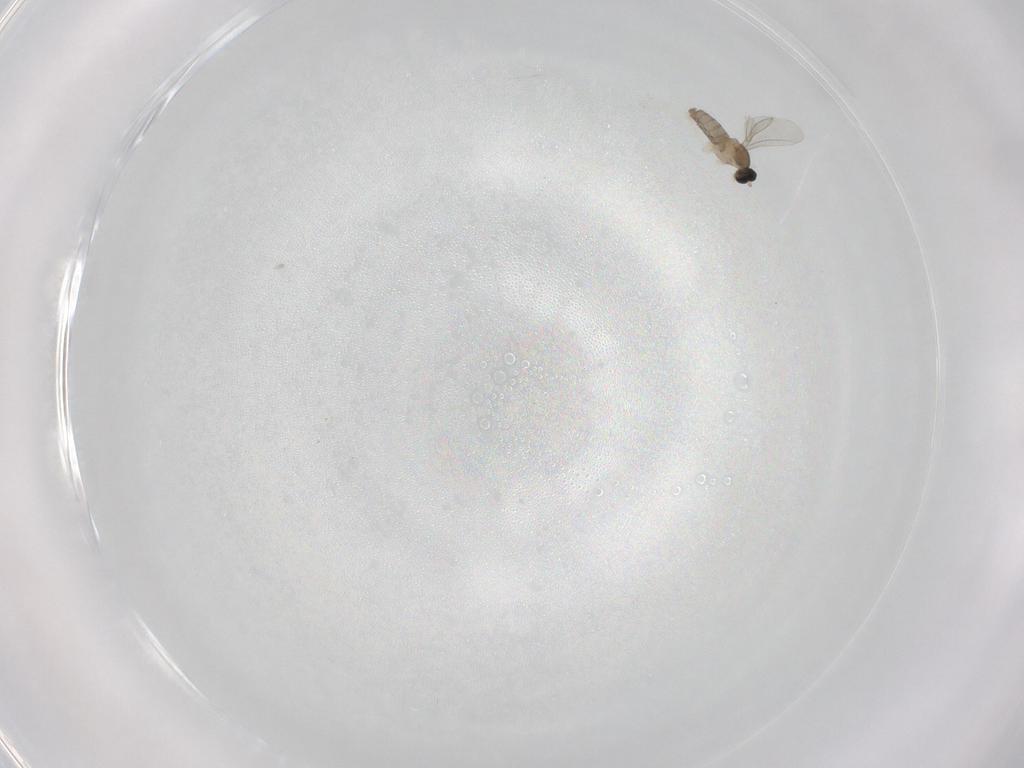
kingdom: Animalia
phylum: Arthropoda
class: Insecta
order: Diptera
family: Cecidomyiidae
